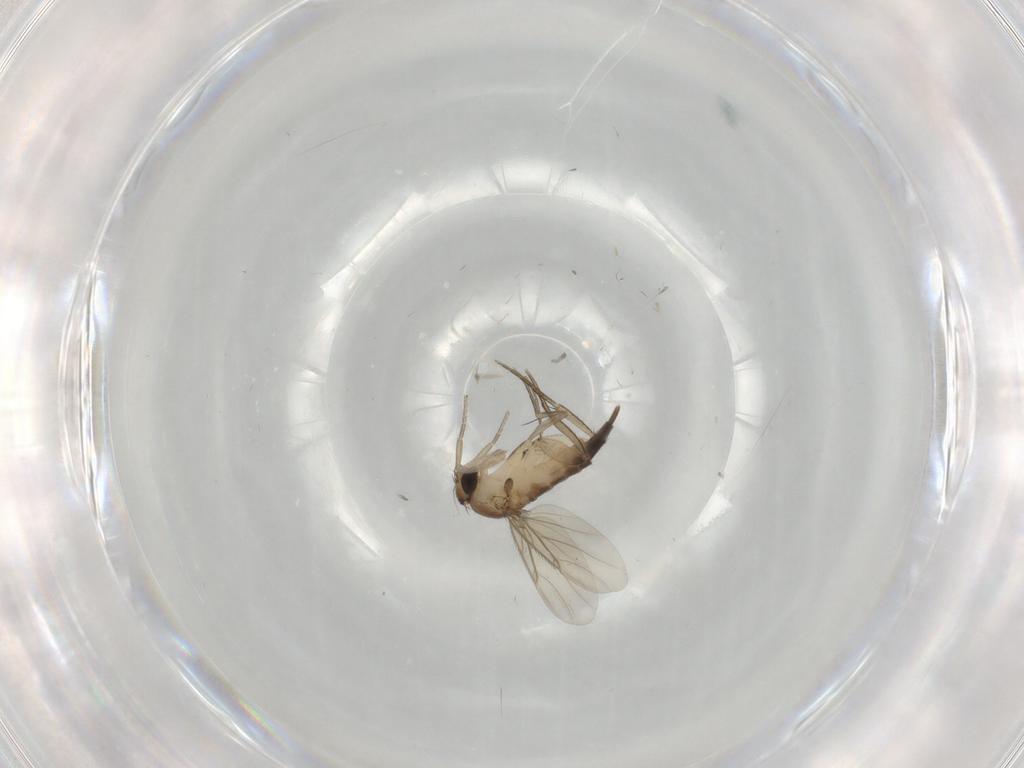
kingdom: Animalia
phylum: Arthropoda
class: Insecta
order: Diptera
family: Phoridae
